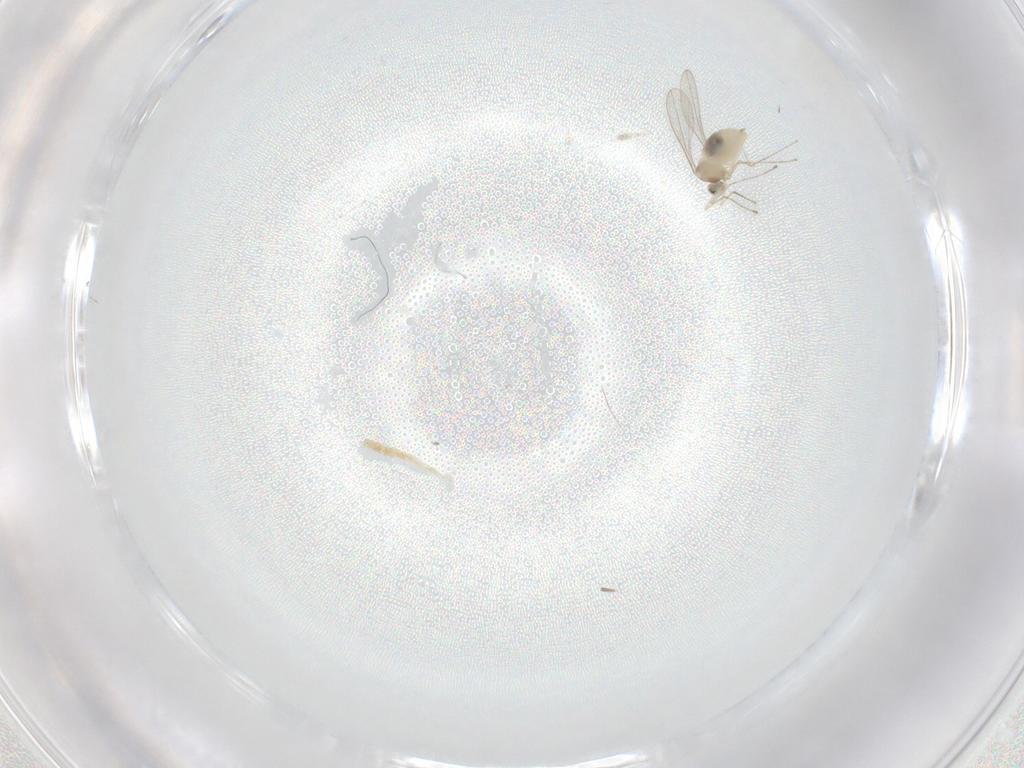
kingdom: Animalia
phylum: Arthropoda
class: Insecta
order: Diptera
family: Cecidomyiidae
